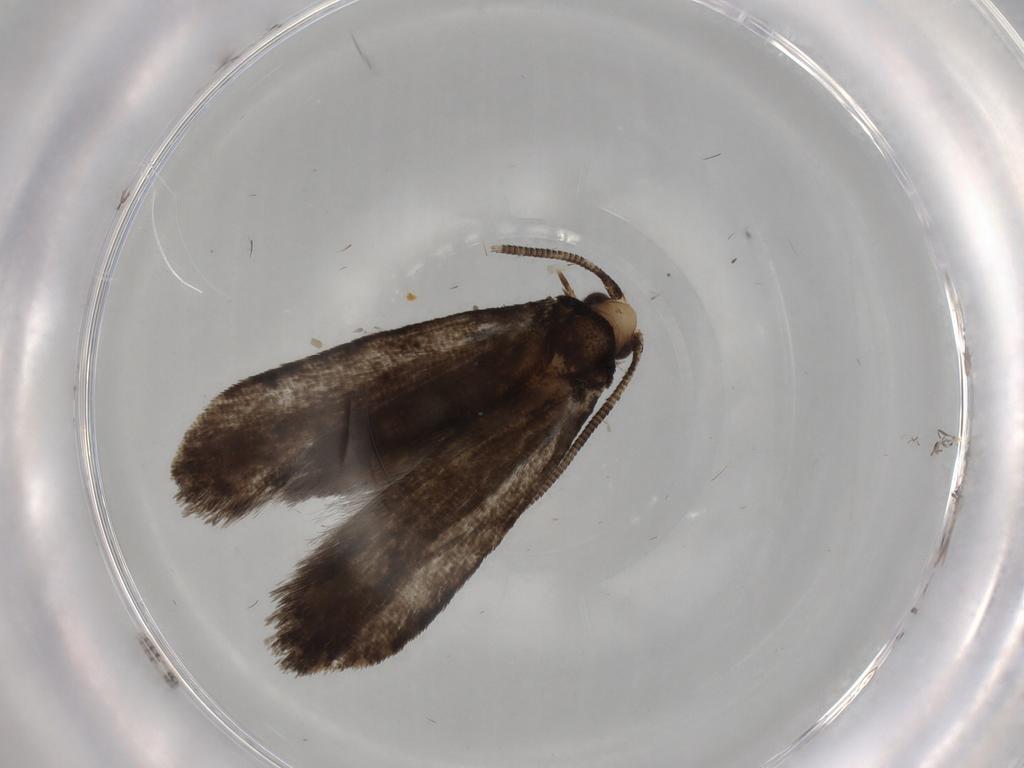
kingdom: Animalia
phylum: Arthropoda
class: Insecta
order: Lepidoptera
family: Tineidae
